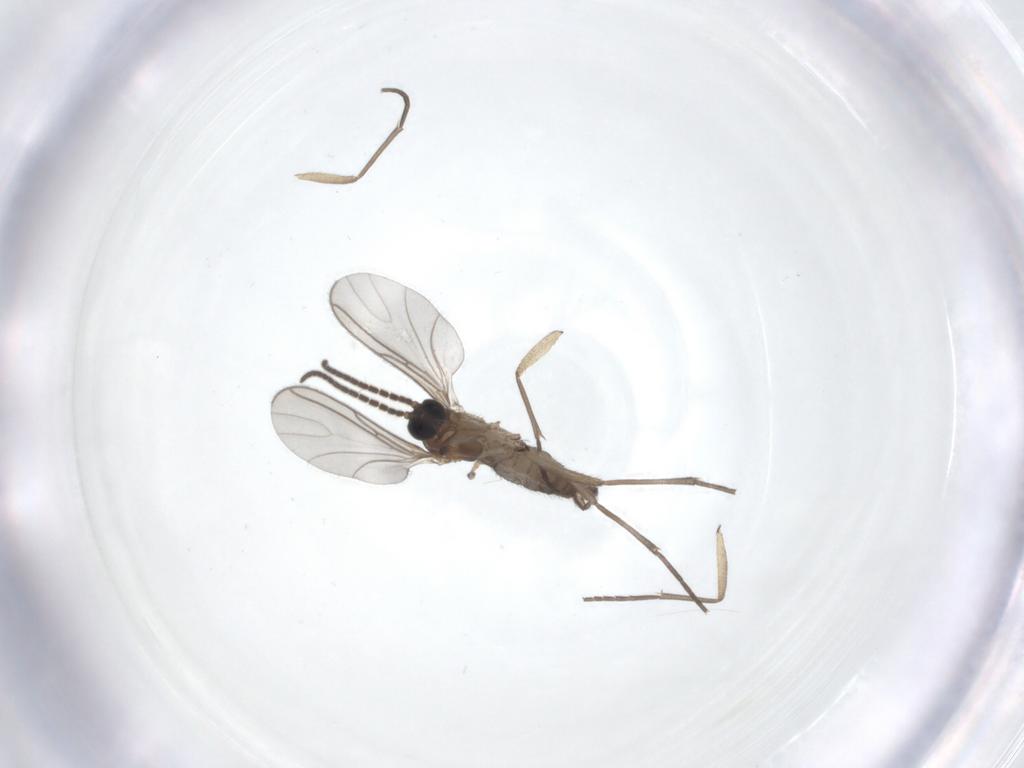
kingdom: Animalia
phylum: Arthropoda
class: Insecta
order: Diptera
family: Sciaridae
